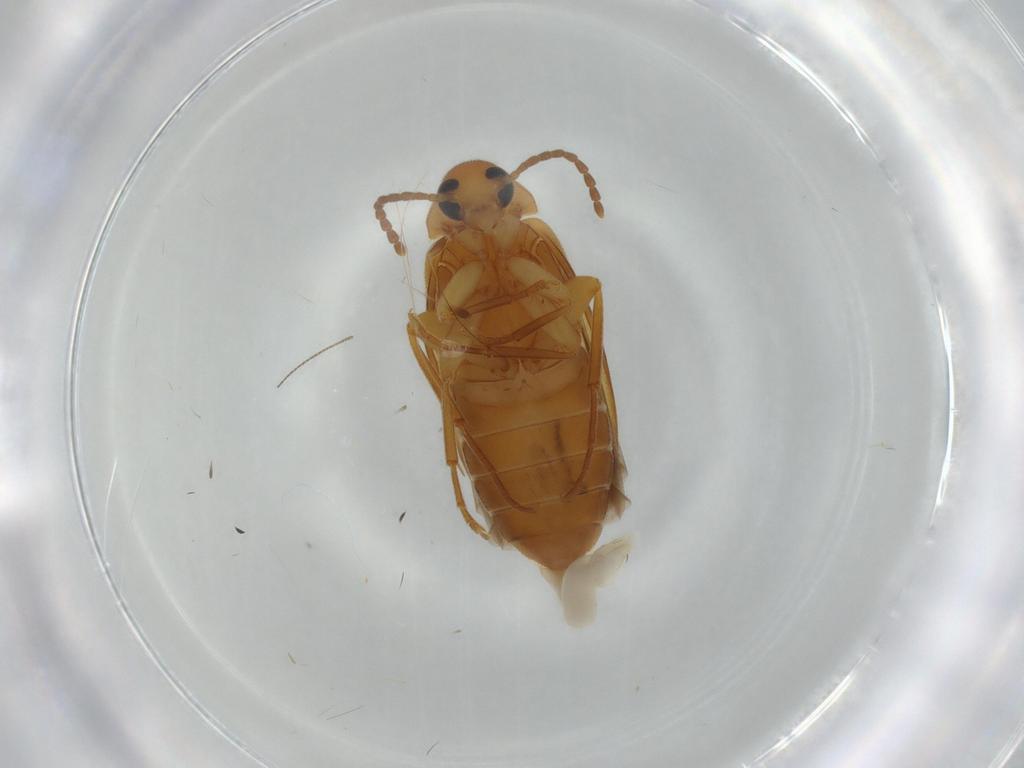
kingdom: Animalia
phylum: Arthropoda
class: Insecta
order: Coleoptera
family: Scraptiidae
